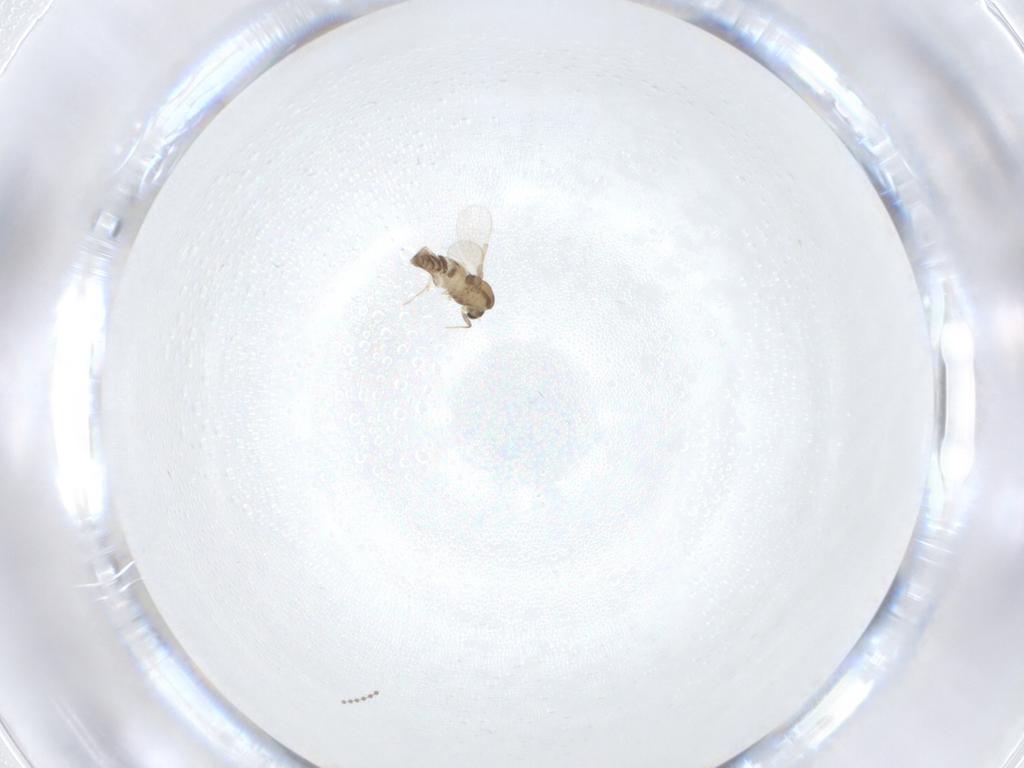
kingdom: Animalia
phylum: Arthropoda
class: Insecta
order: Diptera
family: Chironomidae
